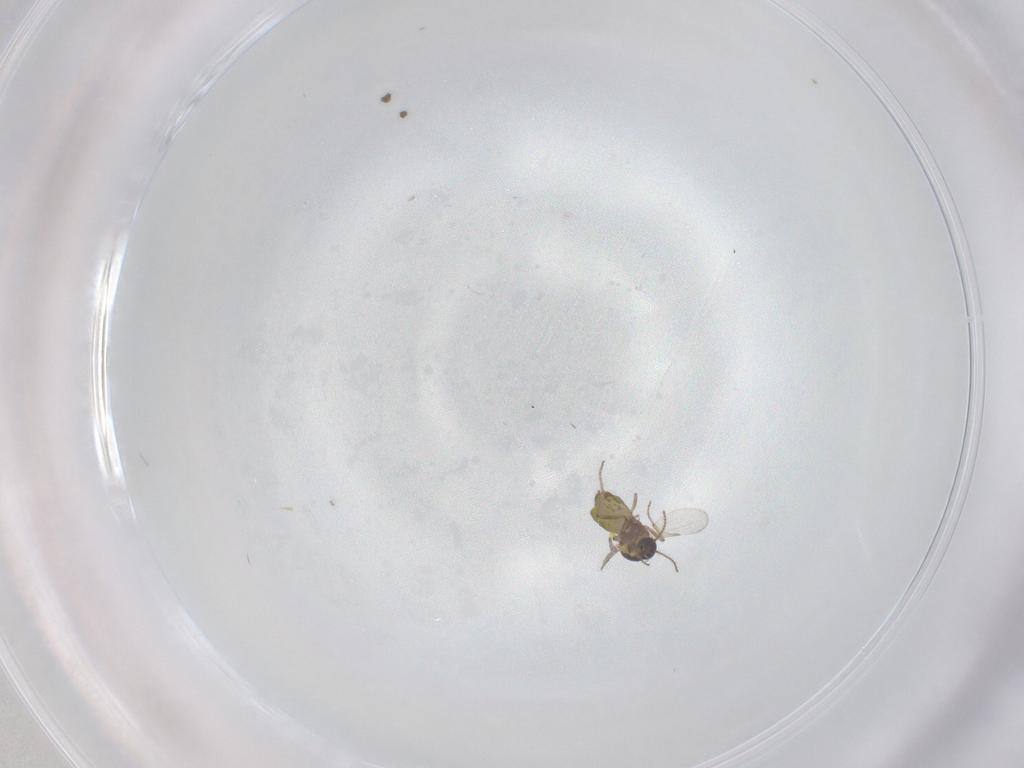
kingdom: Animalia
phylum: Arthropoda
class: Insecta
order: Diptera
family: Ceratopogonidae
